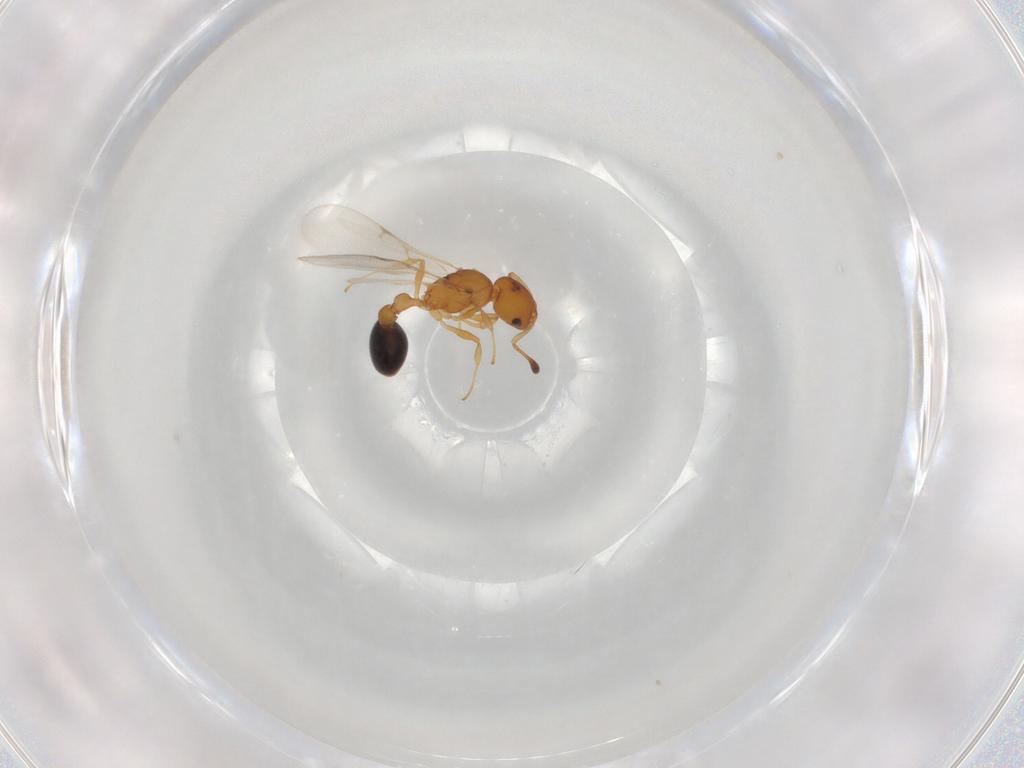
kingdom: Animalia
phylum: Arthropoda
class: Insecta
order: Hymenoptera
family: Formicidae
